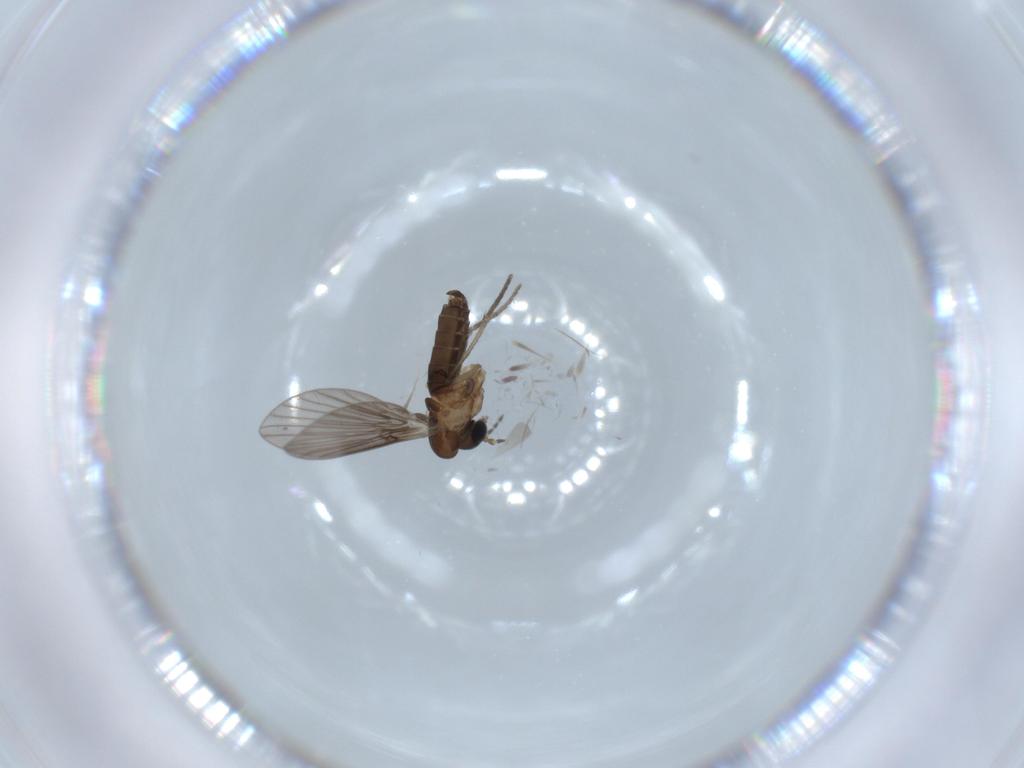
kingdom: Animalia
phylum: Arthropoda
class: Insecta
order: Diptera
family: Psychodidae
